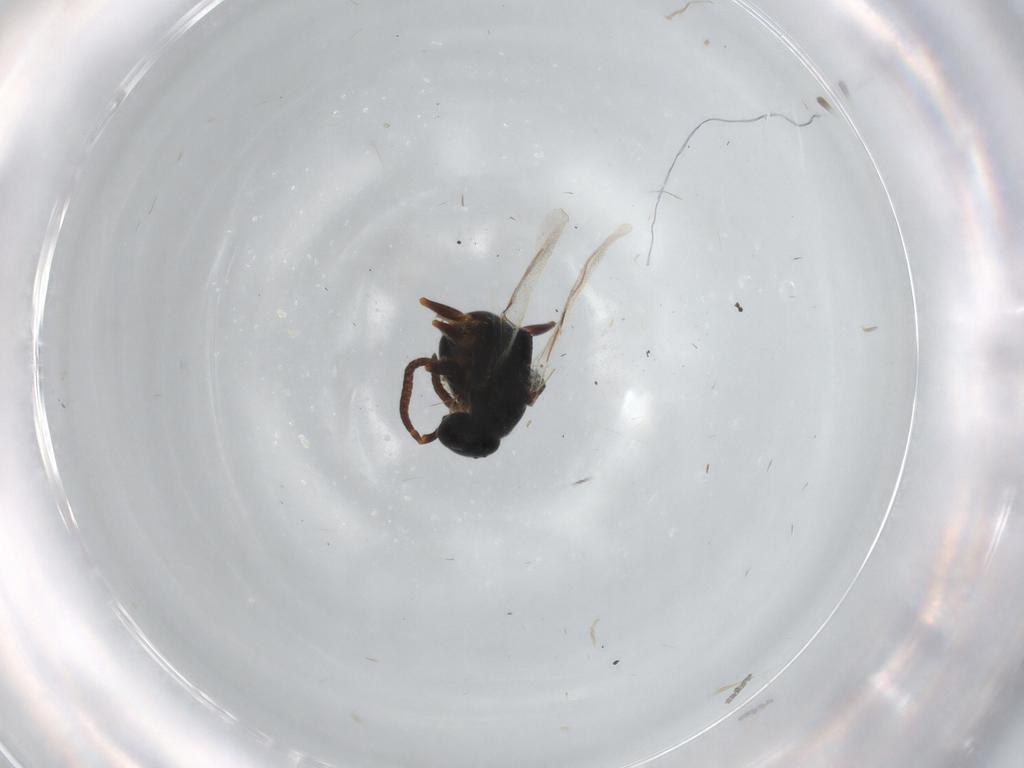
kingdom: Animalia
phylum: Arthropoda
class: Insecta
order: Hymenoptera
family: Bethylidae
